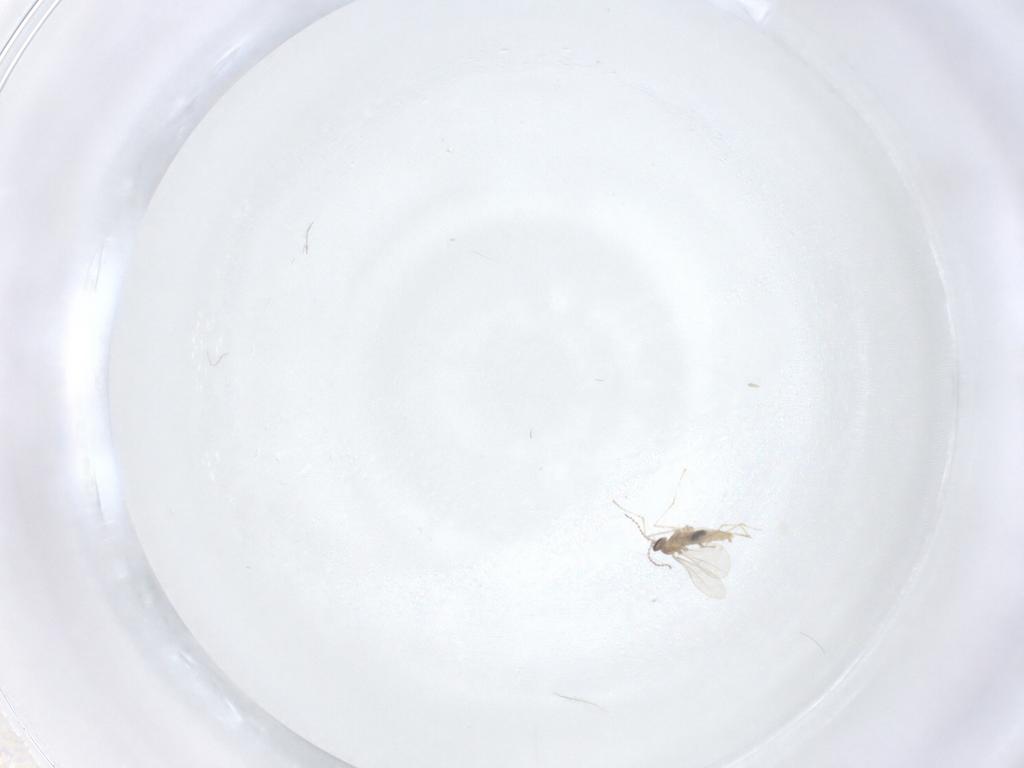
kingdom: Animalia
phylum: Arthropoda
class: Insecta
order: Diptera
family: Cecidomyiidae
